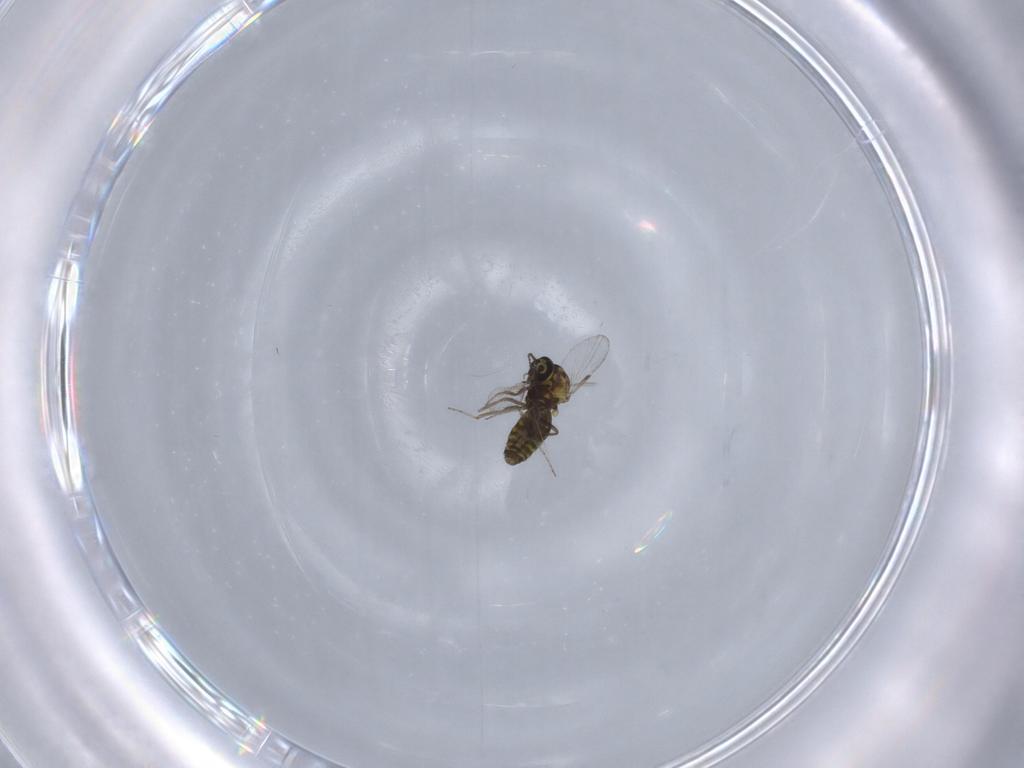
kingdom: Animalia
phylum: Arthropoda
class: Insecta
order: Diptera
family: Ceratopogonidae
